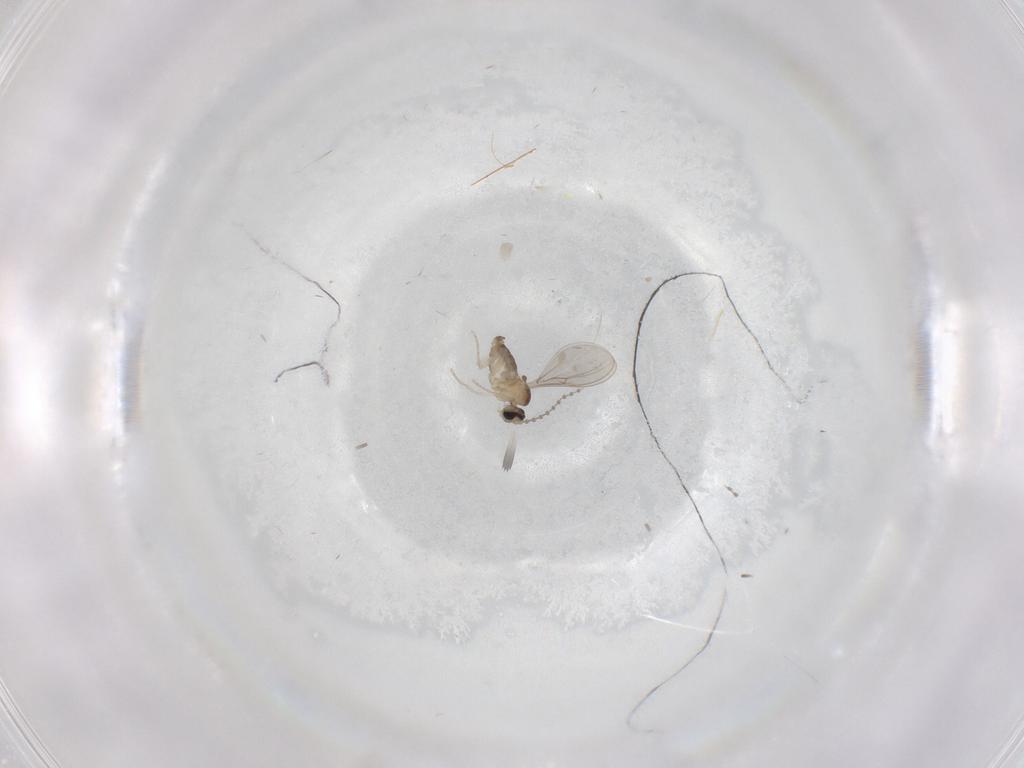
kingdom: Animalia
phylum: Arthropoda
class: Insecta
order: Diptera
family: Cecidomyiidae
